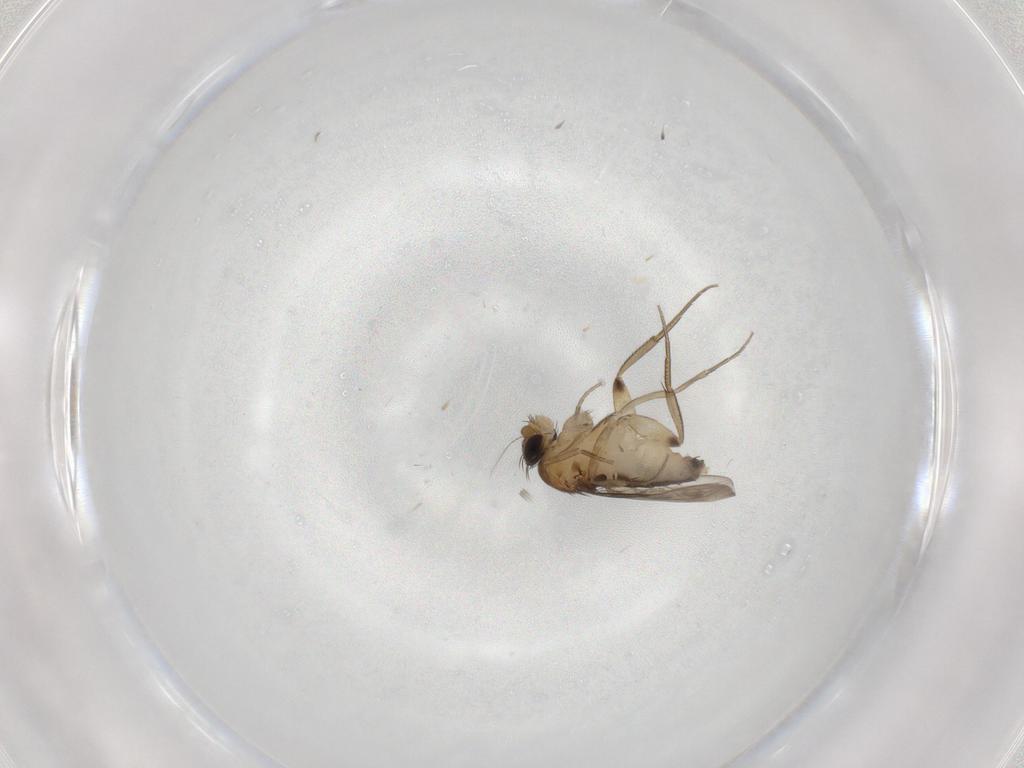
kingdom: Animalia
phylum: Arthropoda
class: Insecta
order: Diptera
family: Phoridae
